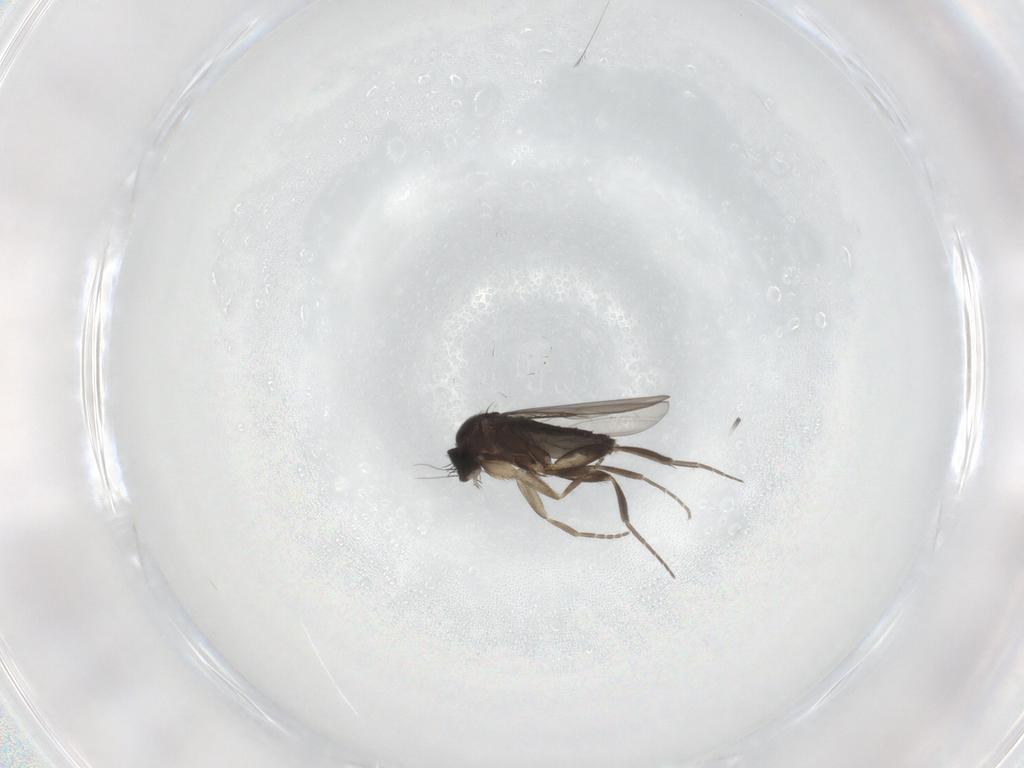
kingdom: Animalia
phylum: Arthropoda
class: Insecta
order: Diptera
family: Phoridae
